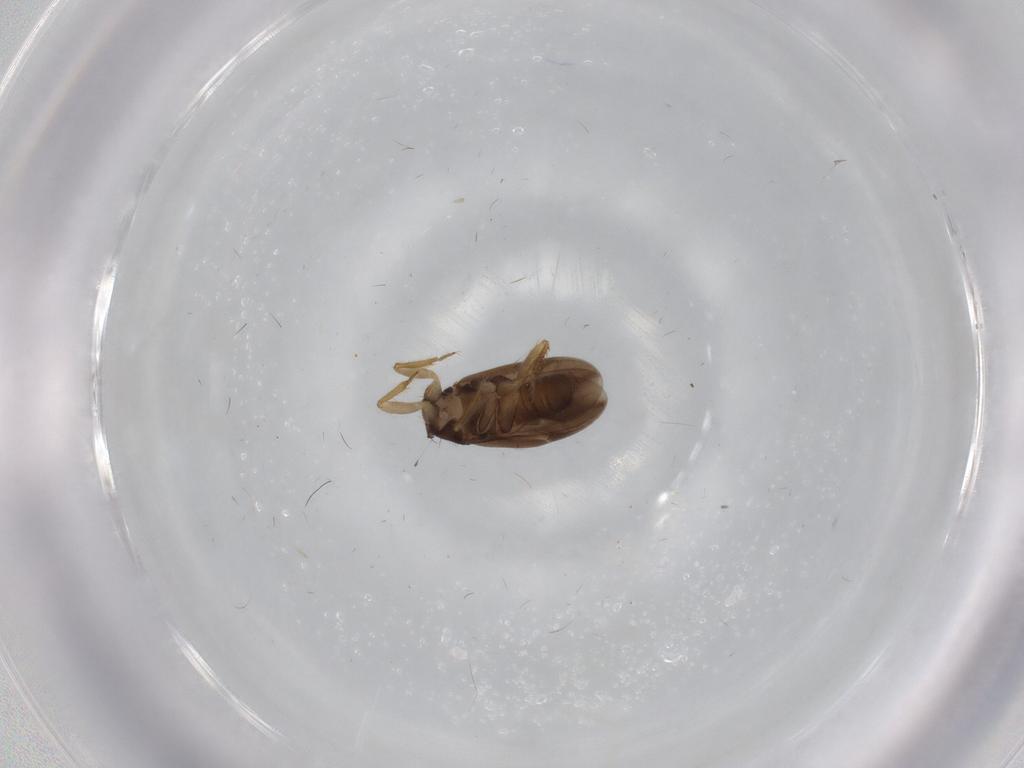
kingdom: Animalia
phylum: Arthropoda
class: Insecta
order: Hemiptera
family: Ceratocombidae
